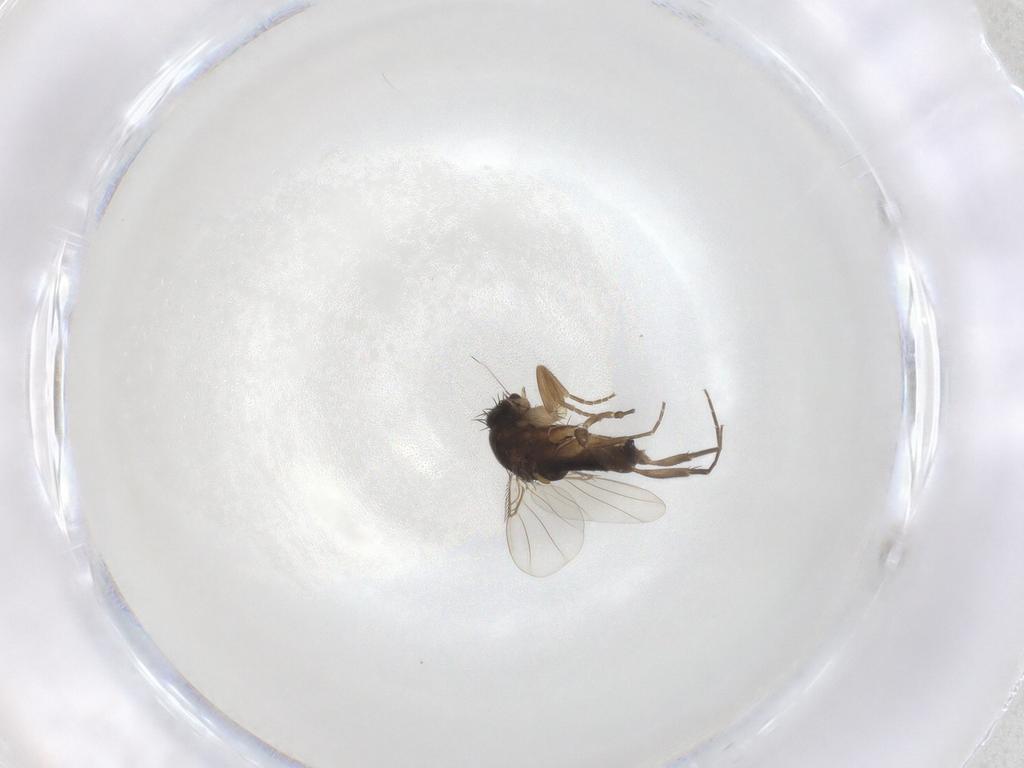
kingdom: Animalia
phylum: Arthropoda
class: Insecta
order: Diptera
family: Phoridae
